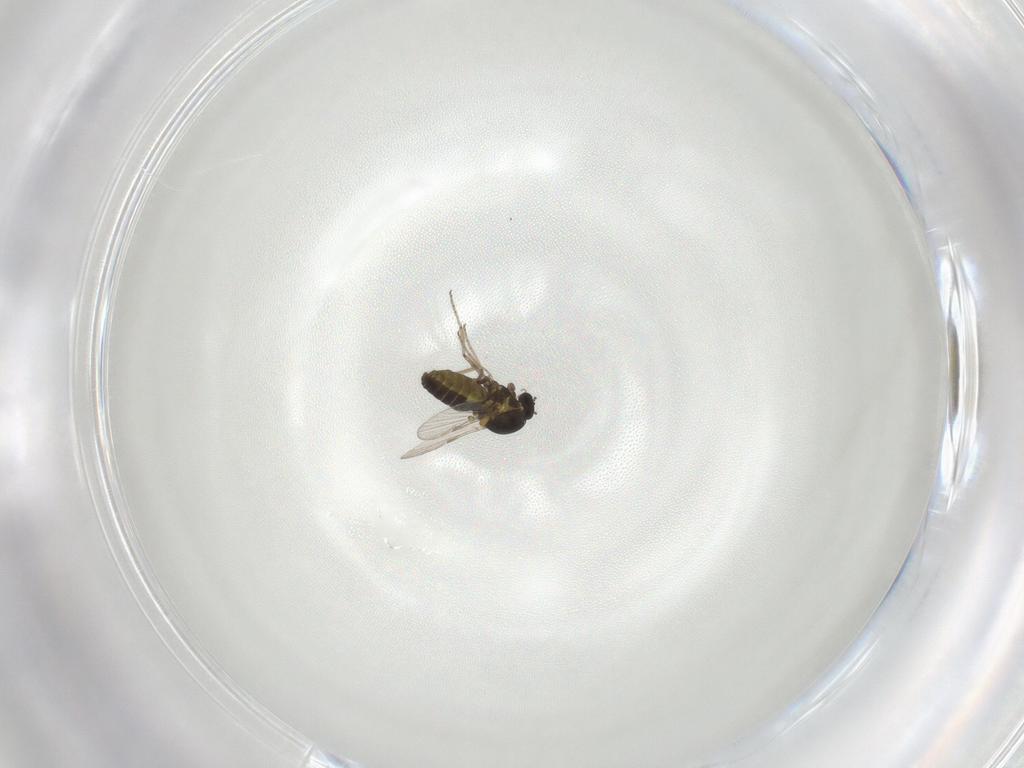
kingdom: Animalia
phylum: Arthropoda
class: Insecta
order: Diptera
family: Ceratopogonidae
